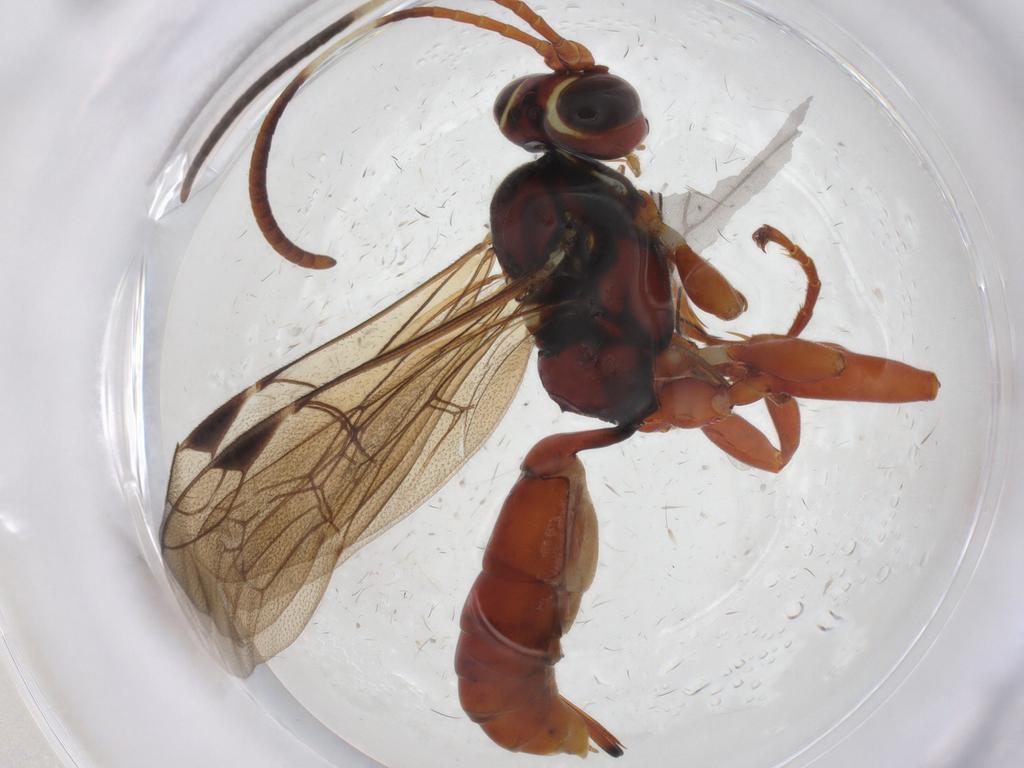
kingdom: Animalia
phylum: Arthropoda
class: Insecta
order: Hymenoptera
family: Ichneumonidae
